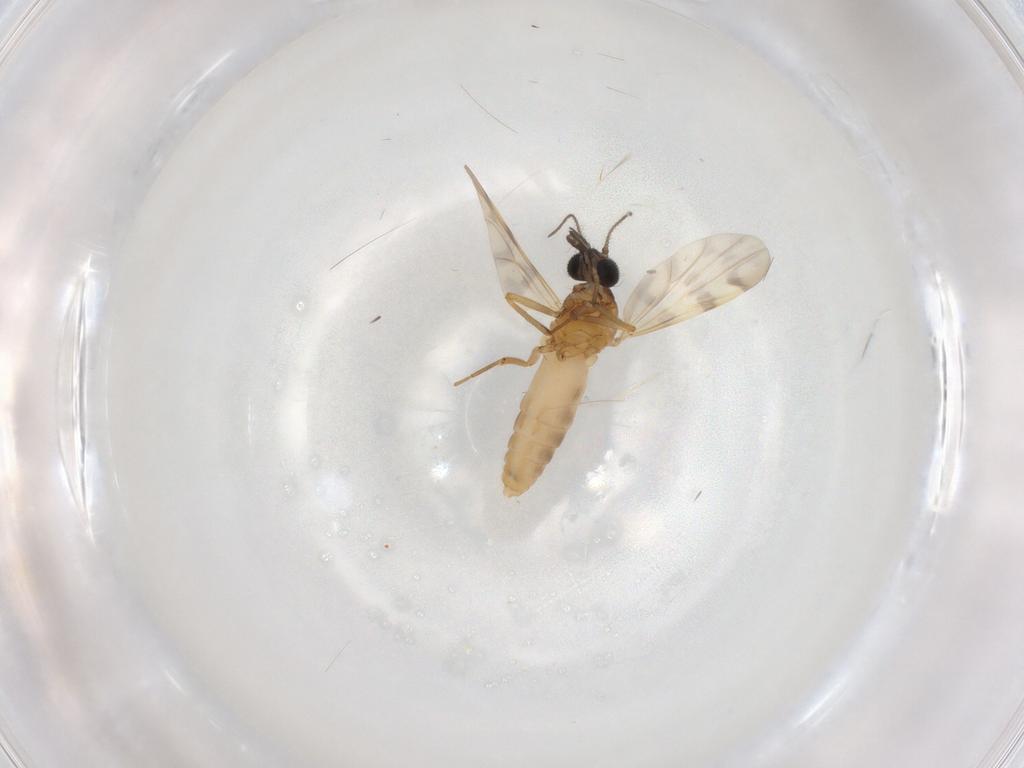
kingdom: Animalia
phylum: Arthropoda
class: Insecta
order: Diptera
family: Ceratopogonidae
